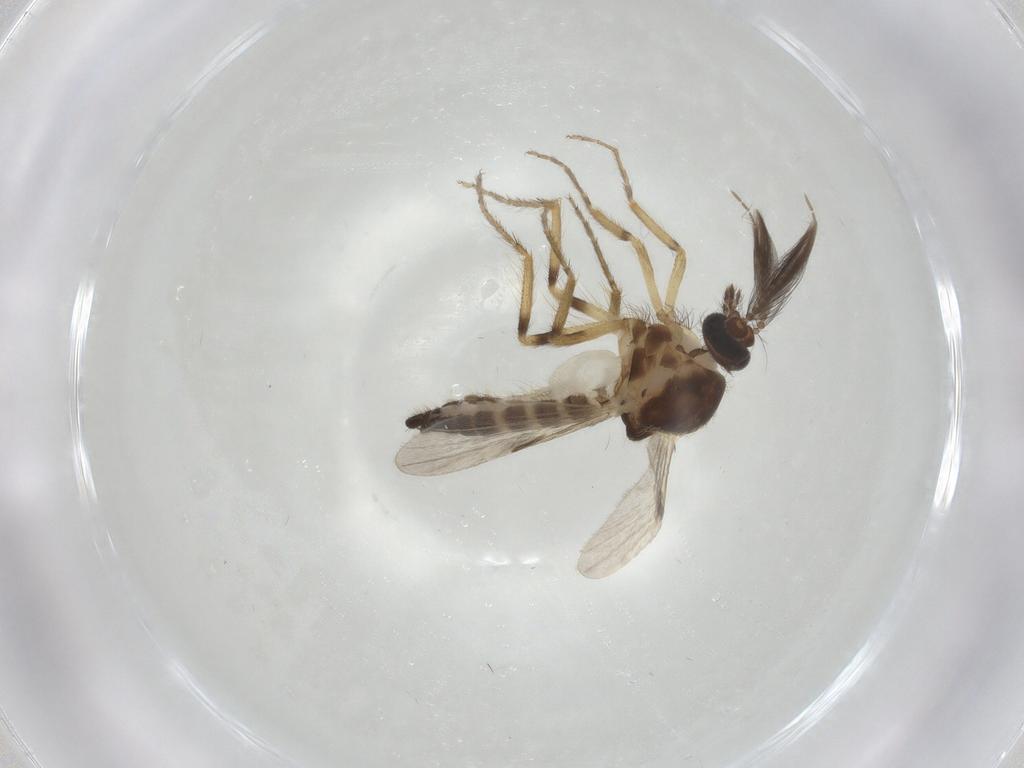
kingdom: Animalia
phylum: Arthropoda
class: Insecta
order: Diptera
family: Ceratopogonidae
